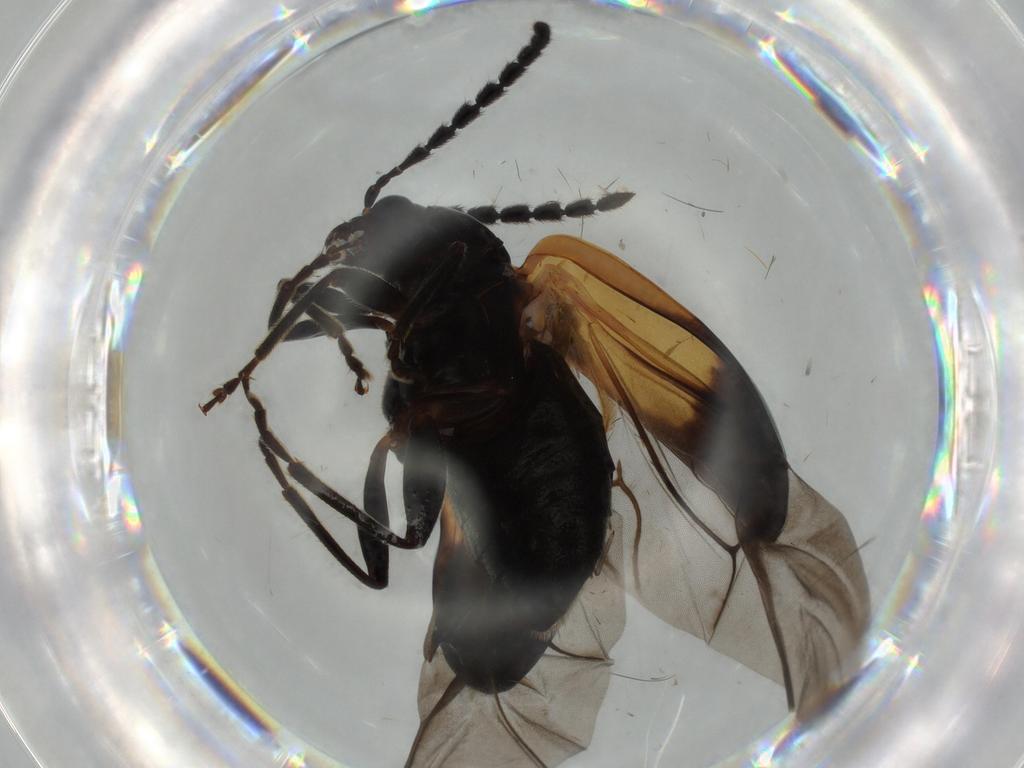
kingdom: Animalia
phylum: Arthropoda
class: Insecta
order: Coleoptera
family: Chrysomelidae
